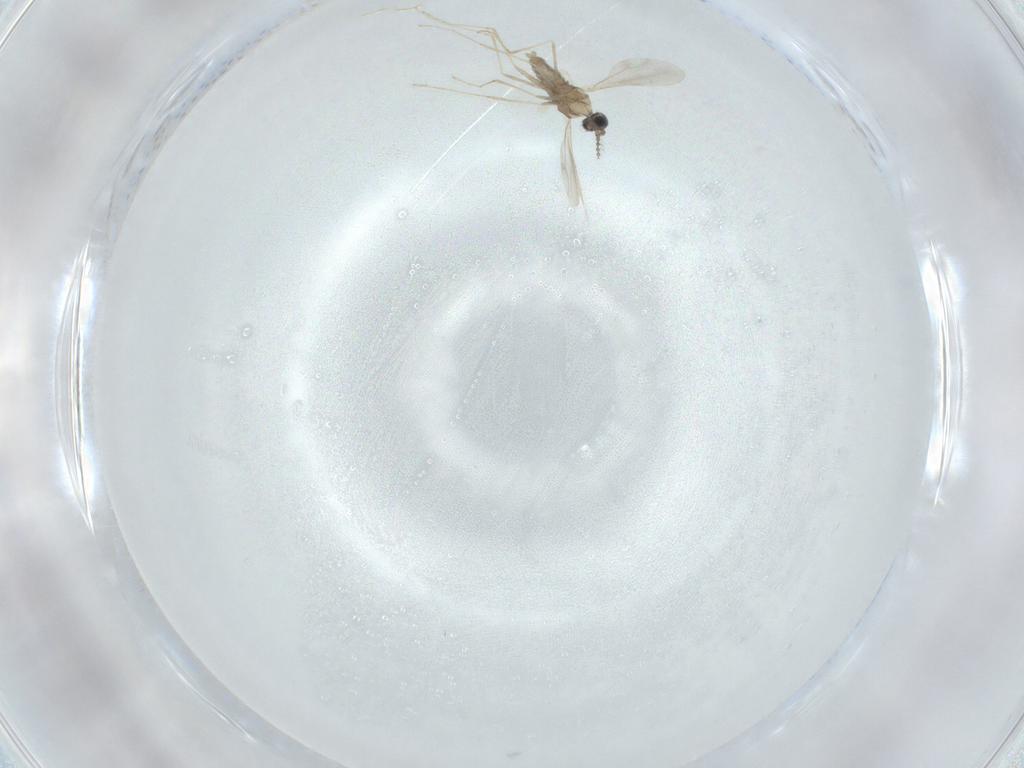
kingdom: Animalia
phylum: Arthropoda
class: Insecta
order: Diptera
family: Cecidomyiidae
